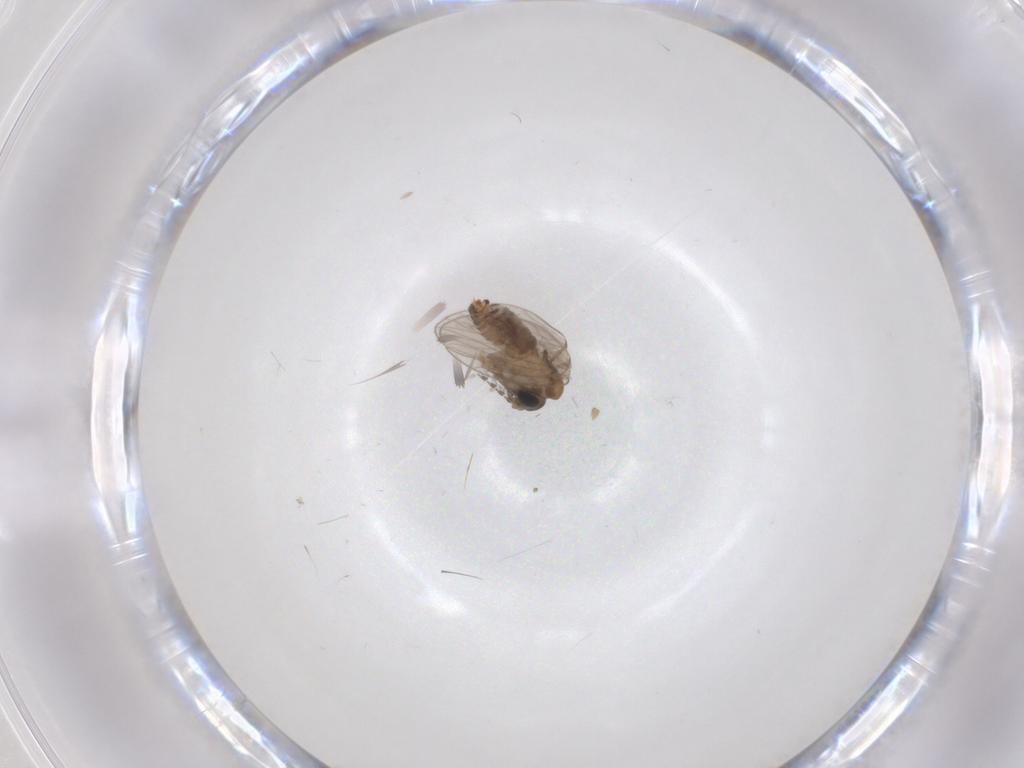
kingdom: Animalia
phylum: Arthropoda
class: Insecta
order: Diptera
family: Psychodidae
